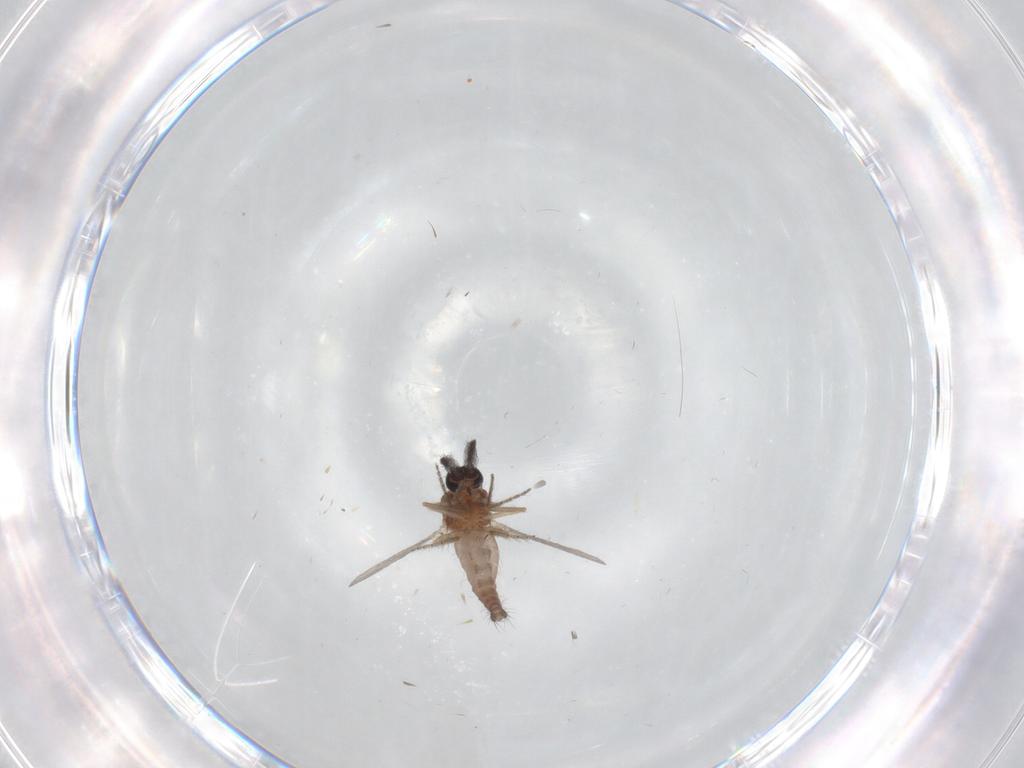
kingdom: Animalia
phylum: Arthropoda
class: Insecta
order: Diptera
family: Ceratopogonidae
